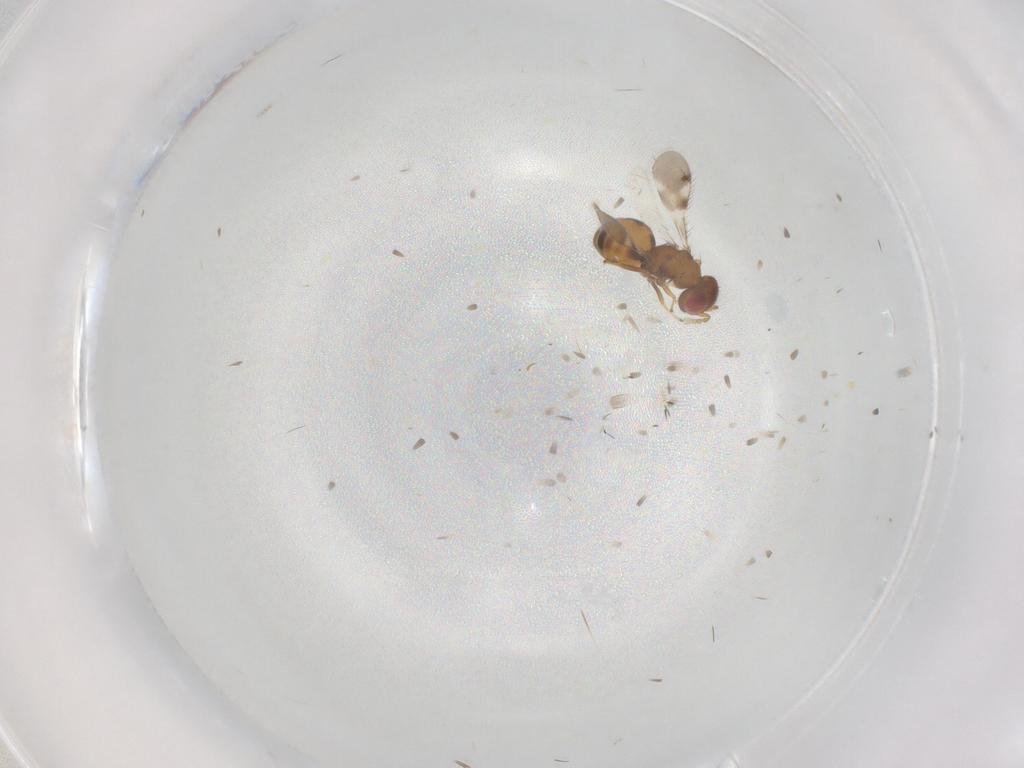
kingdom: Animalia
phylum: Arthropoda
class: Insecta
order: Hymenoptera
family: Eulophidae
